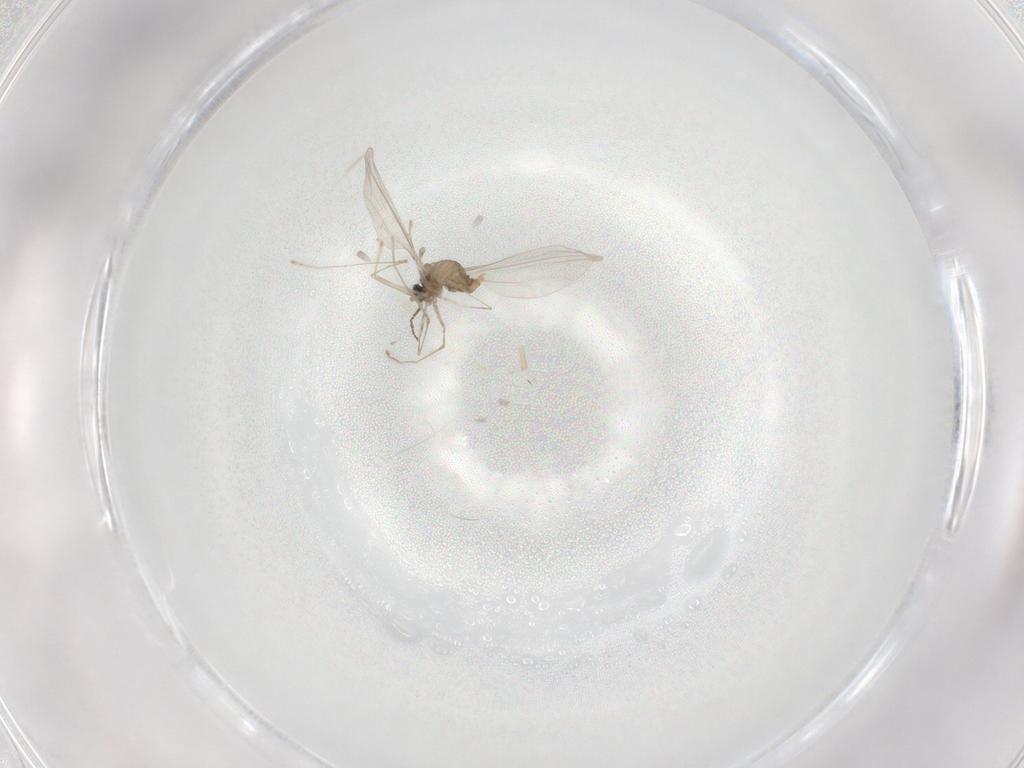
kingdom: Animalia
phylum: Arthropoda
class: Insecta
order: Diptera
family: Cecidomyiidae
